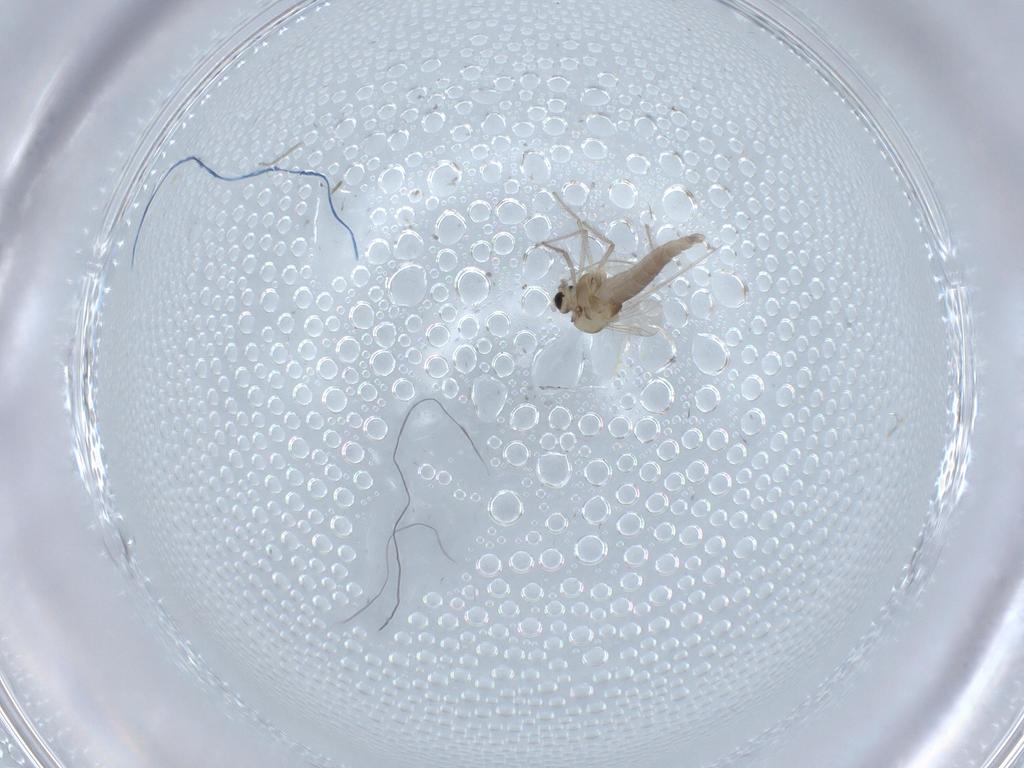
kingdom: Animalia
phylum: Arthropoda
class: Insecta
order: Diptera
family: Chironomidae
